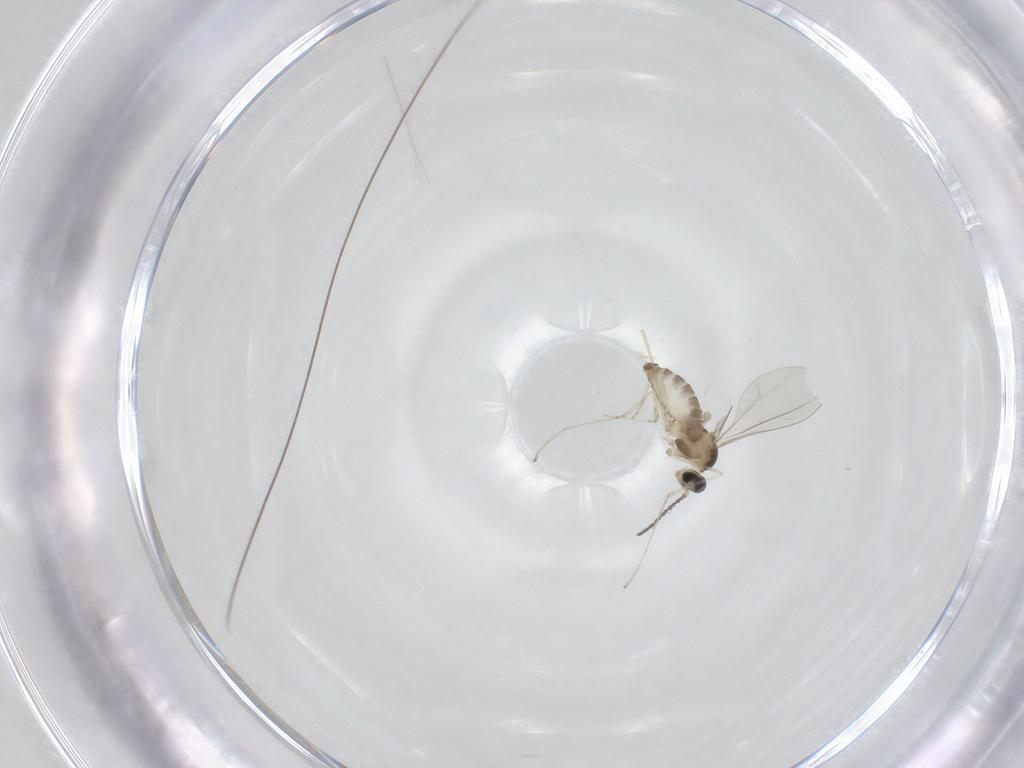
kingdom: Animalia
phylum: Arthropoda
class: Insecta
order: Diptera
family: Cecidomyiidae
